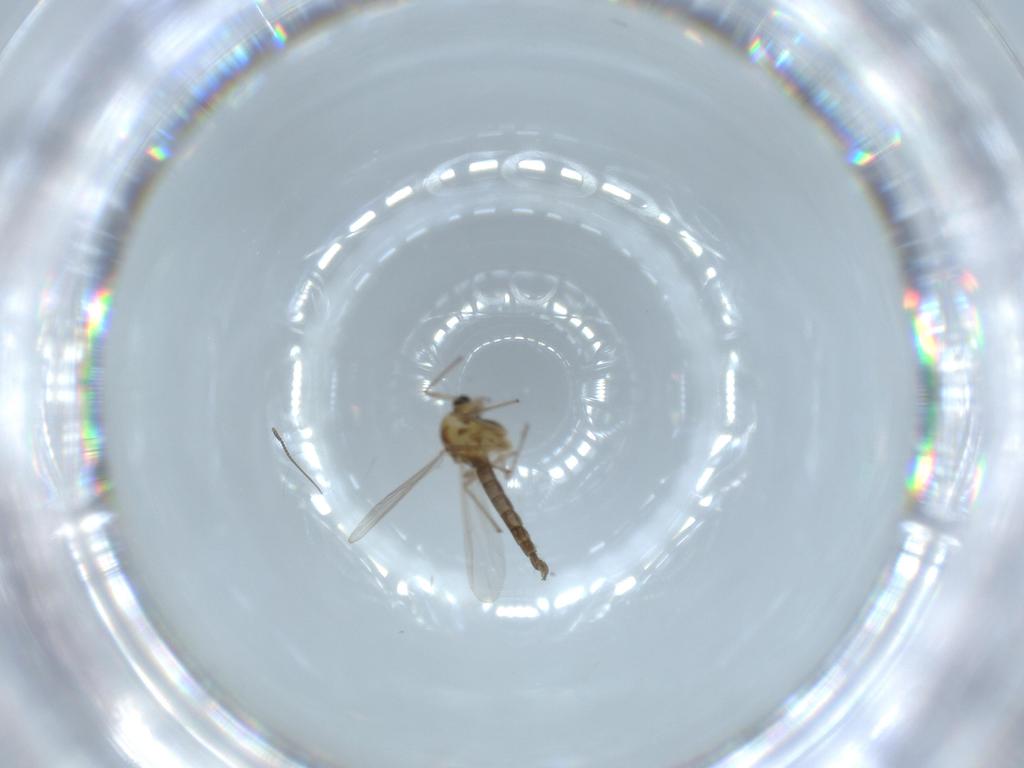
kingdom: Animalia
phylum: Arthropoda
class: Insecta
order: Diptera
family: Chironomidae
